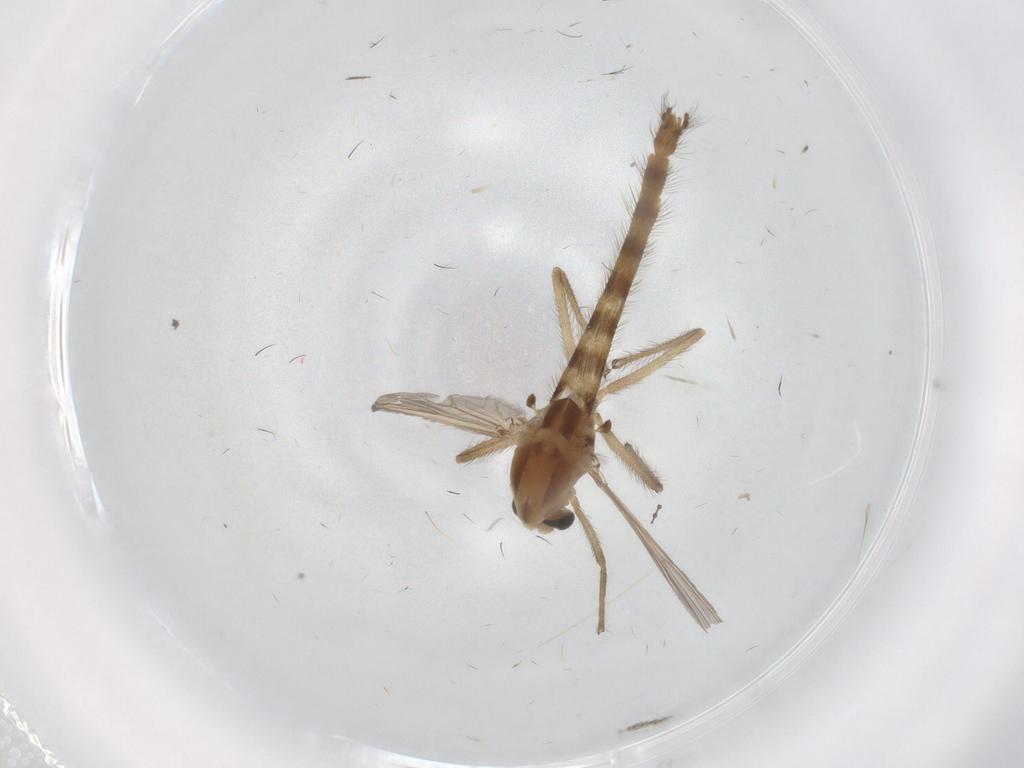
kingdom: Animalia
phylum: Arthropoda
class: Insecta
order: Diptera
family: Chironomidae
